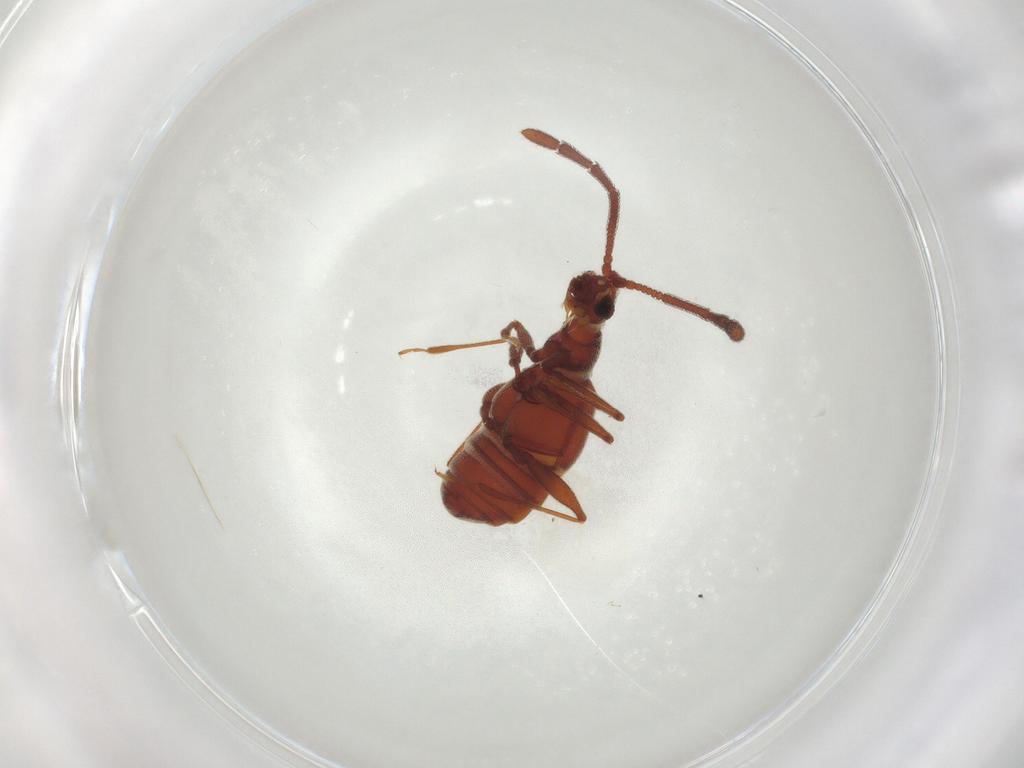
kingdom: Animalia
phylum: Arthropoda
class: Insecta
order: Coleoptera
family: Staphylinidae
